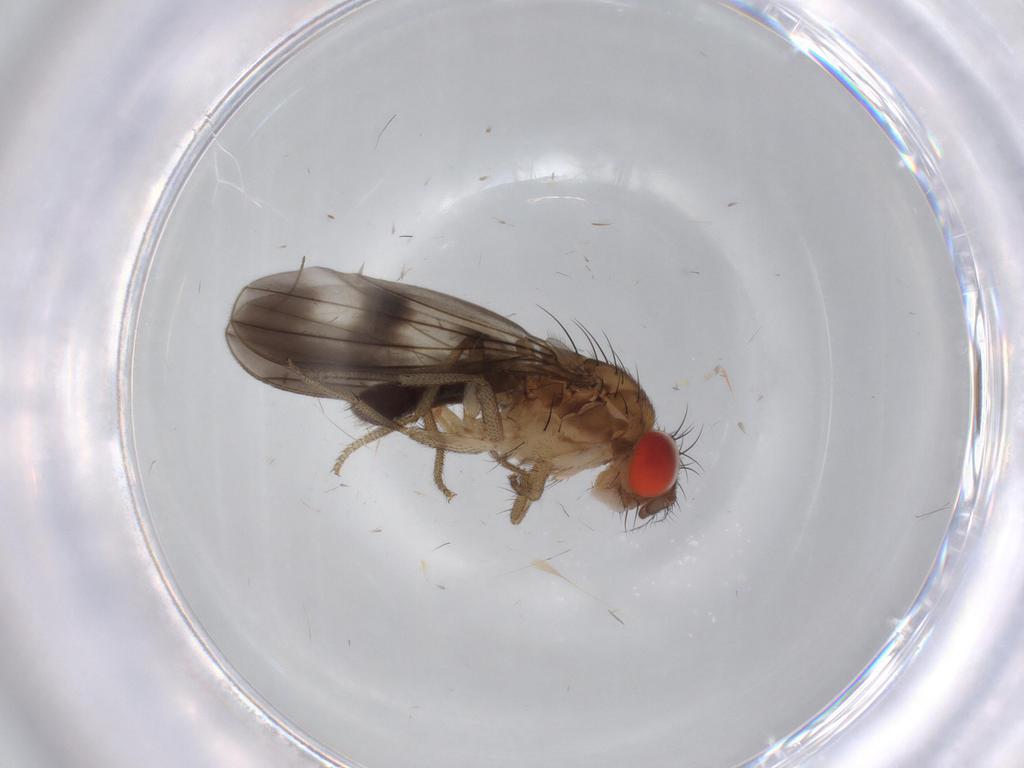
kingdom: Animalia
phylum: Arthropoda
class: Insecta
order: Diptera
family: Drosophilidae
